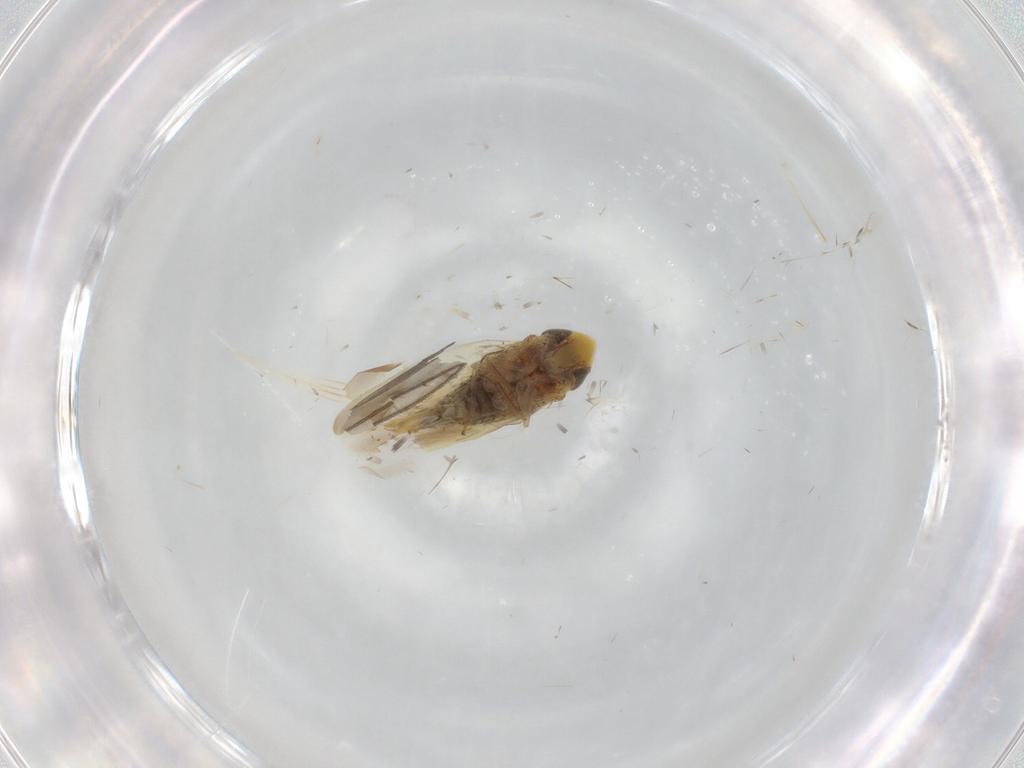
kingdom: Animalia
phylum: Arthropoda
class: Insecta
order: Hemiptera
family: Cicadellidae
